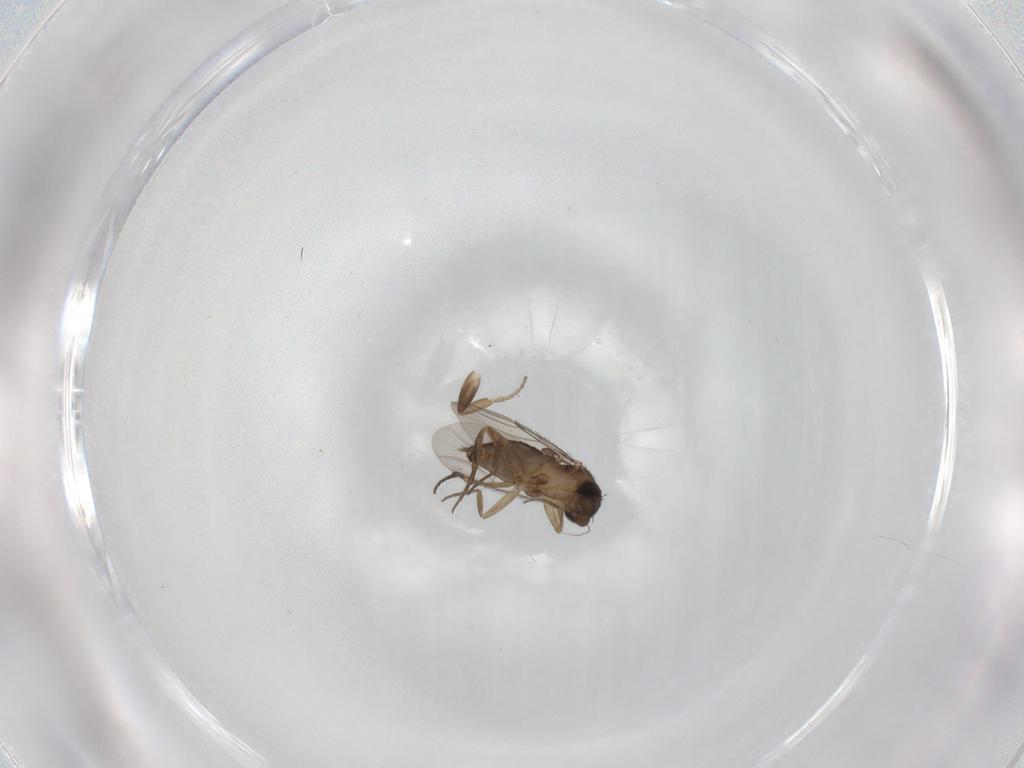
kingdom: Animalia
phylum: Arthropoda
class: Insecta
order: Diptera
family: Phoridae
